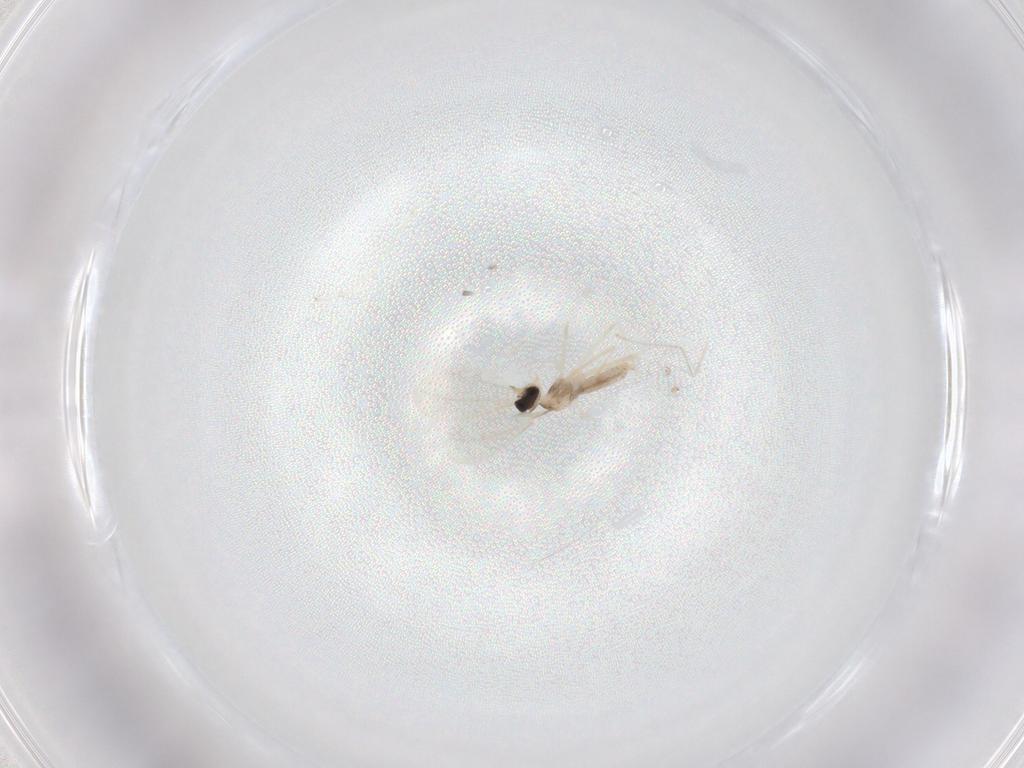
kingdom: Animalia
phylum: Arthropoda
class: Insecta
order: Diptera
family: Cecidomyiidae
